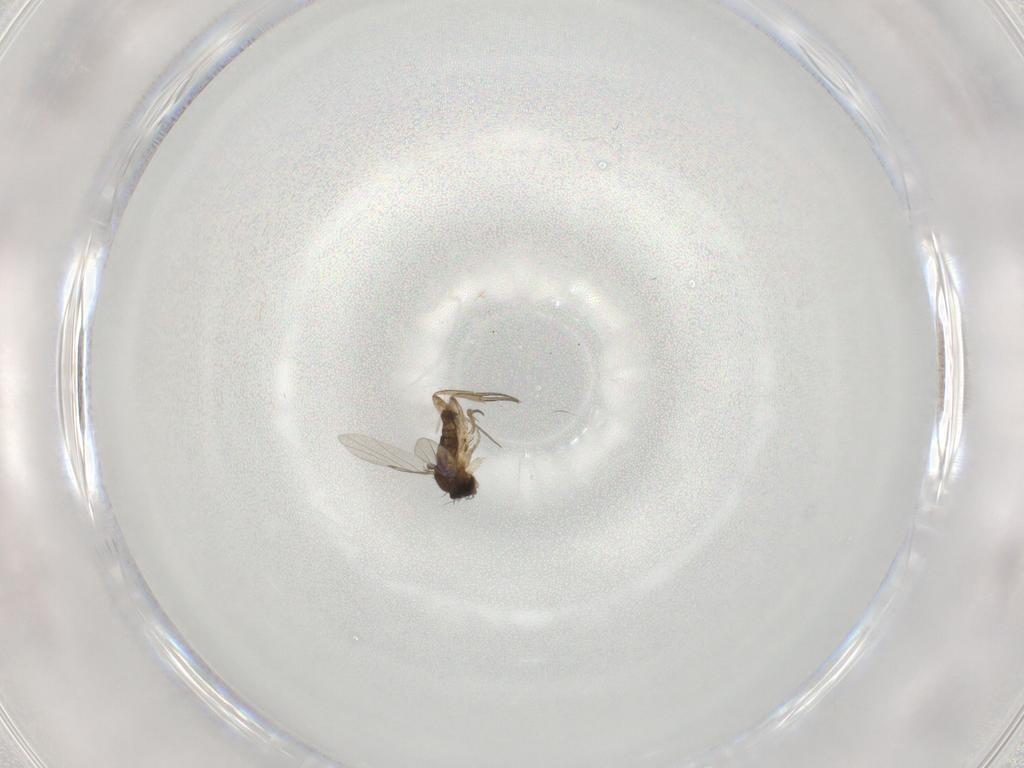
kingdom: Animalia
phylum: Arthropoda
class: Insecta
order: Diptera
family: Phoridae
